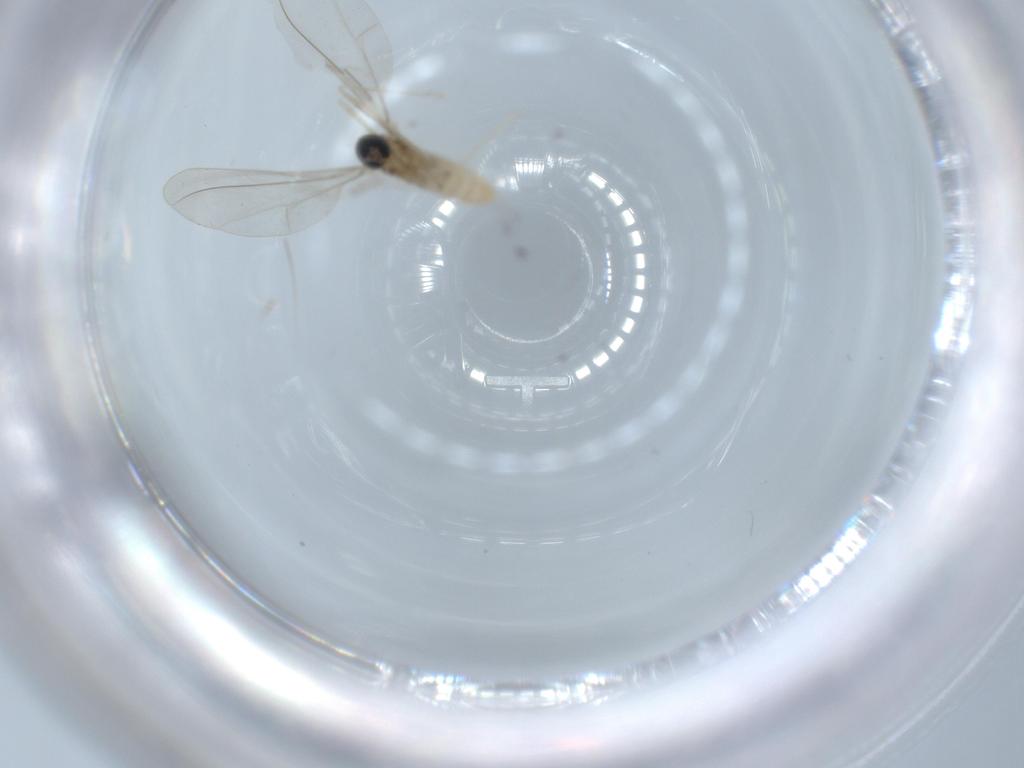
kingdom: Animalia
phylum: Arthropoda
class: Insecta
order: Diptera
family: Cecidomyiidae
